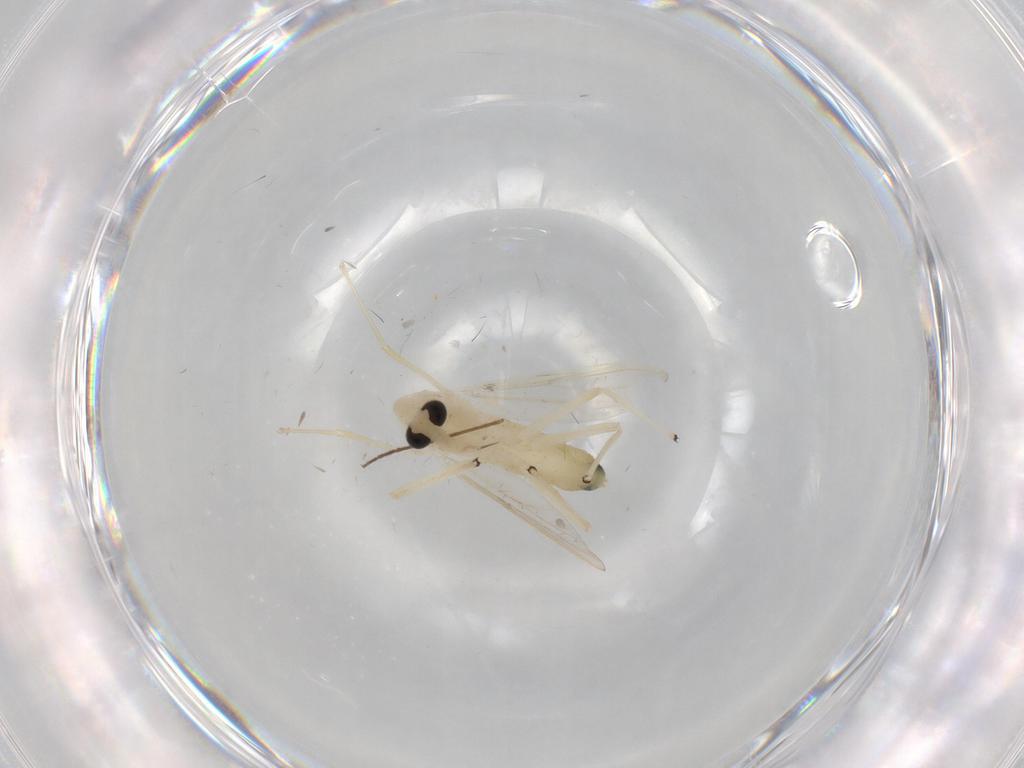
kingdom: Animalia
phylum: Arthropoda
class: Insecta
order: Diptera
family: Chironomidae
